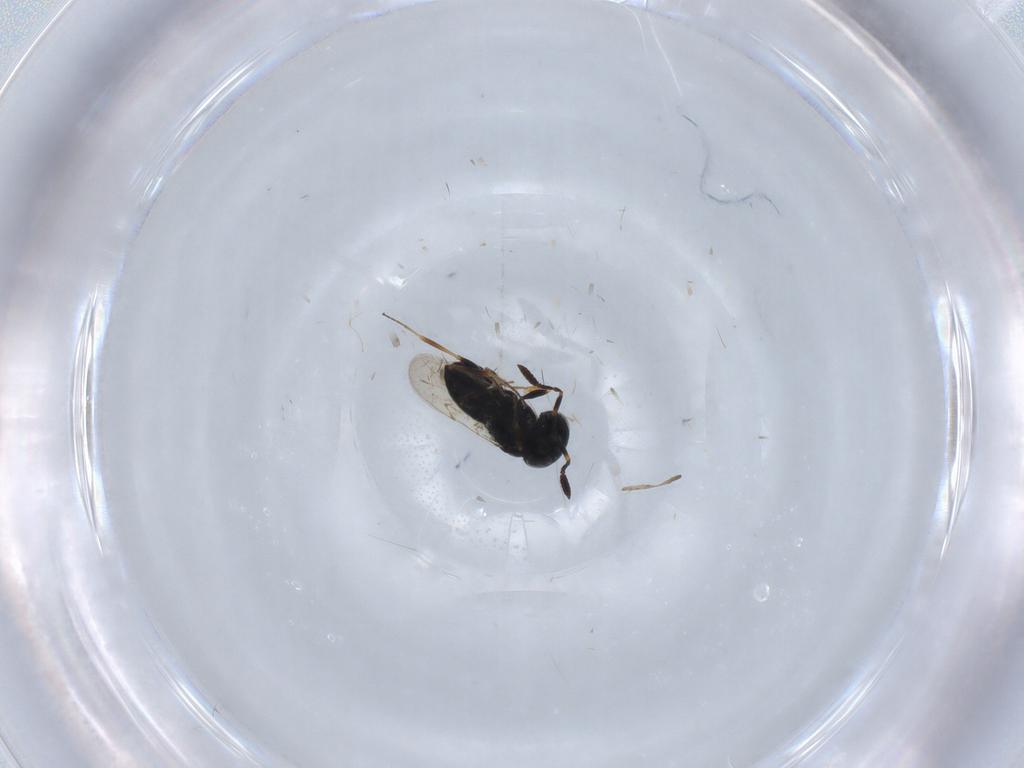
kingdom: Animalia
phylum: Arthropoda
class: Insecta
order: Hymenoptera
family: Scelionidae
